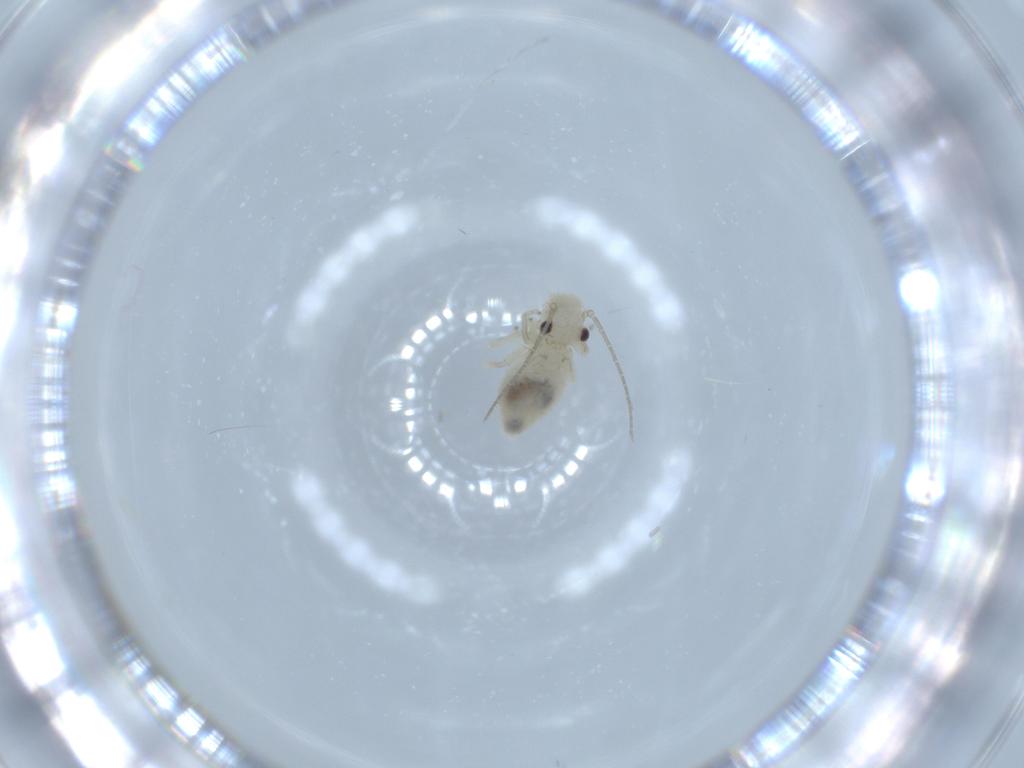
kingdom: Animalia
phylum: Arthropoda
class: Insecta
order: Psocodea
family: Caeciliusidae
